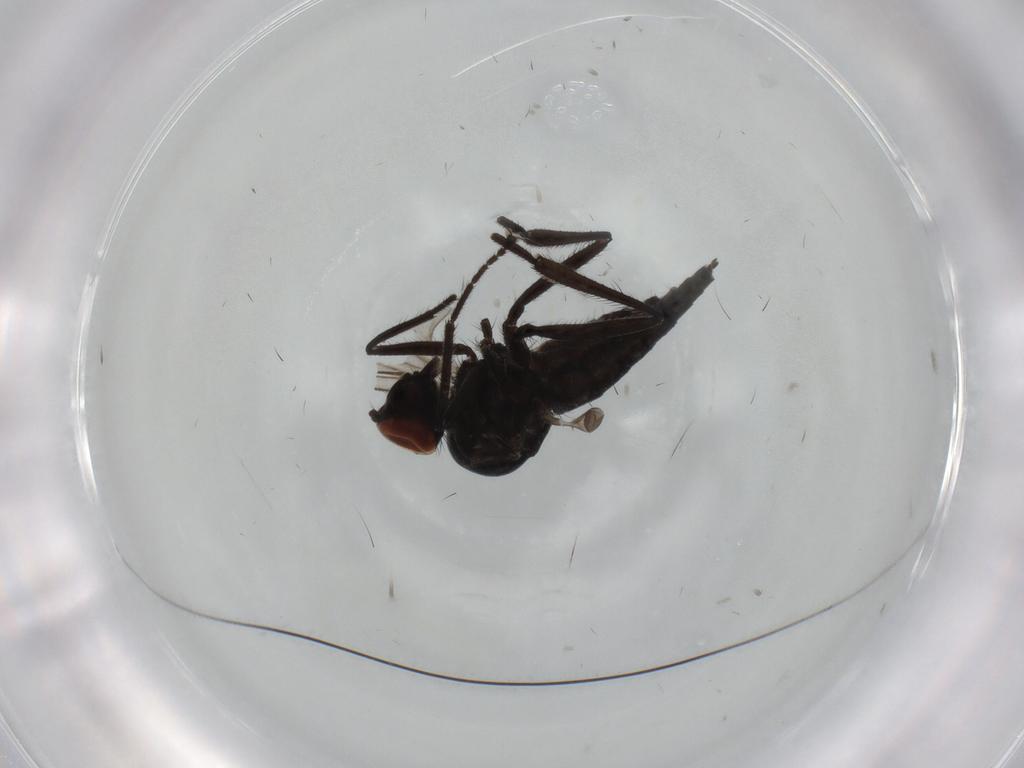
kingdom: Animalia
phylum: Arthropoda
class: Insecta
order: Diptera
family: Hybotidae
